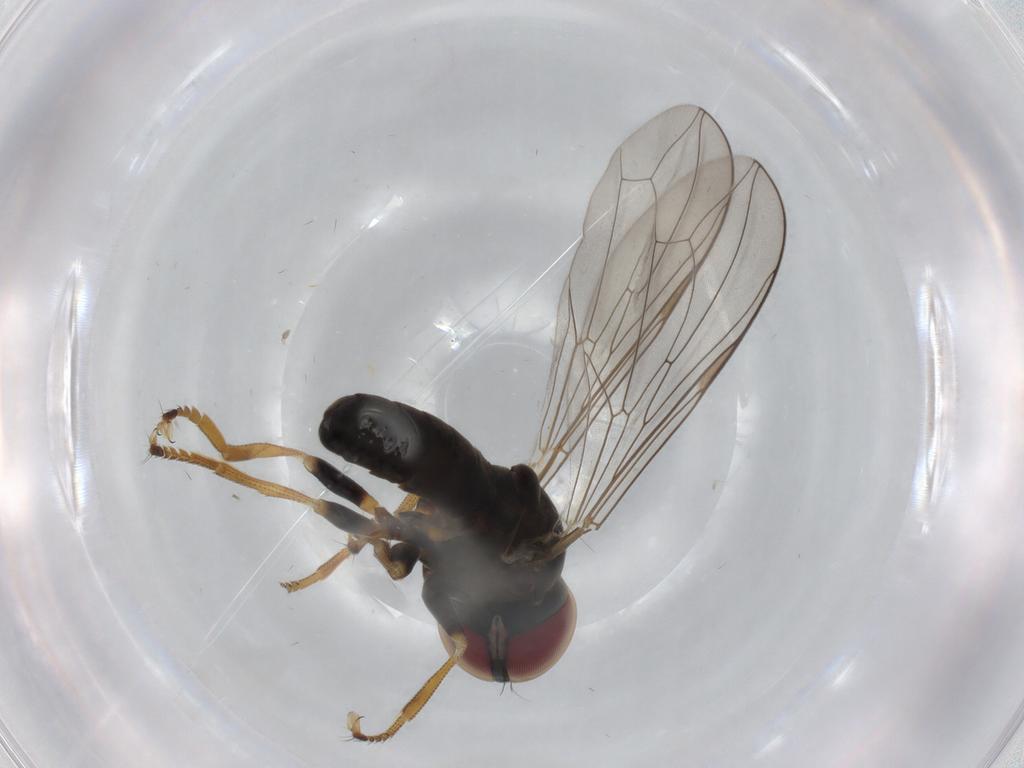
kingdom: Animalia
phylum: Arthropoda
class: Insecta
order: Diptera
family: Pipunculidae
